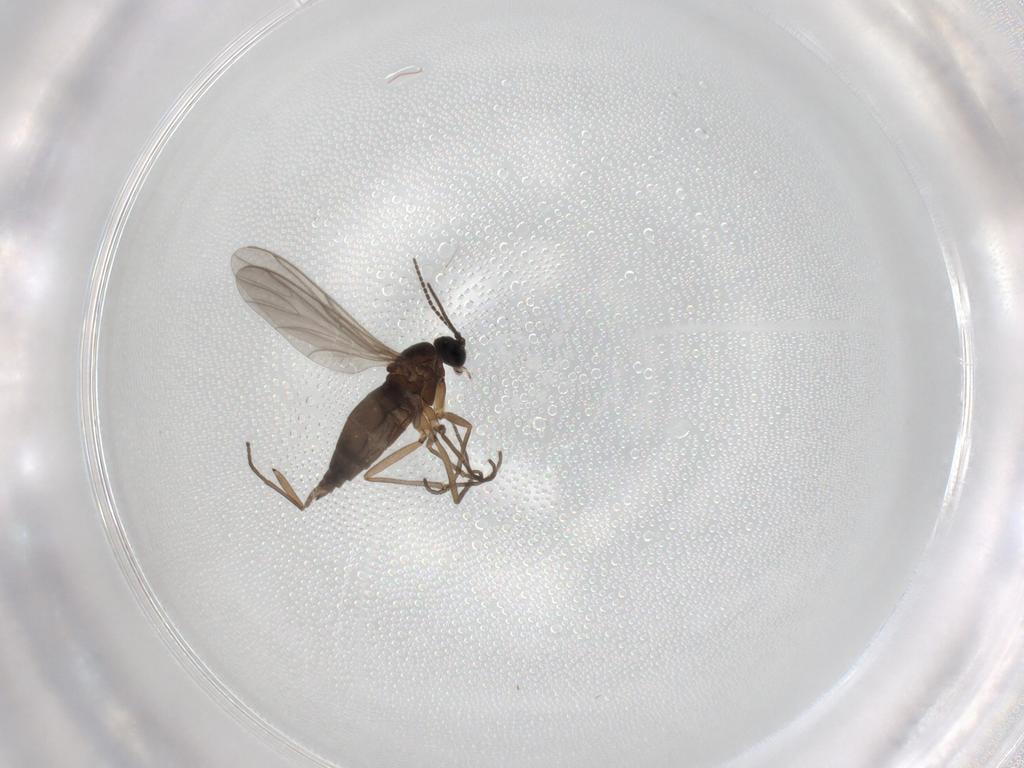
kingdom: Animalia
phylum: Arthropoda
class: Insecta
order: Diptera
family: Sciaridae
